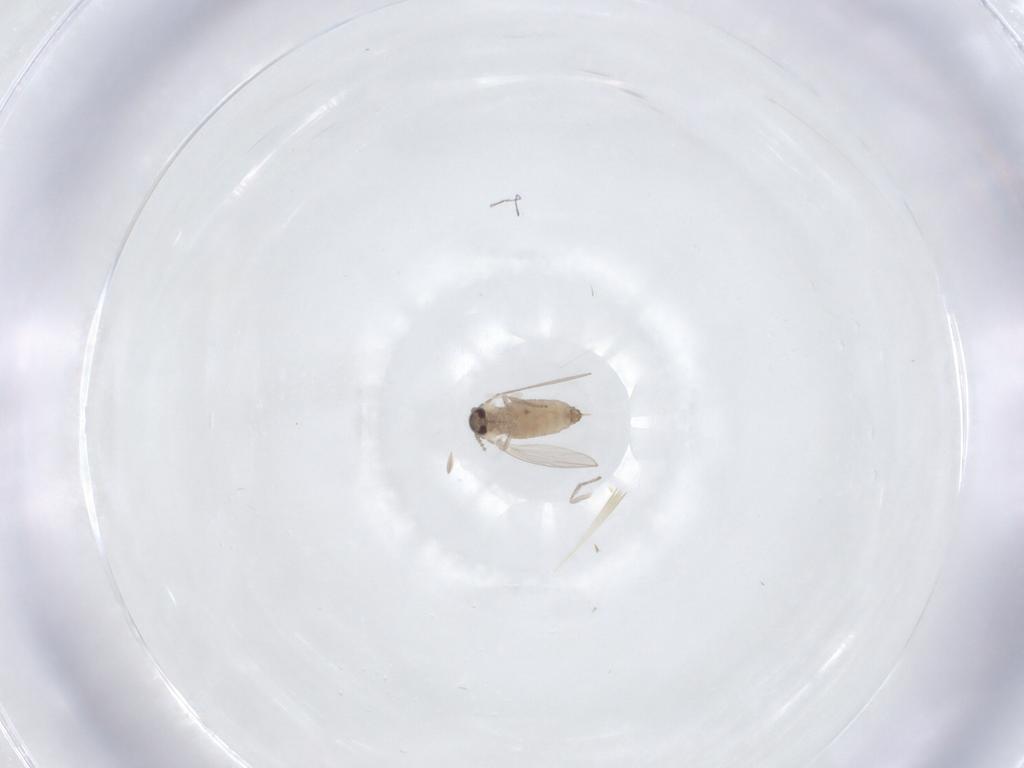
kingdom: Animalia
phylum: Arthropoda
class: Insecta
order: Diptera
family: Psychodidae
